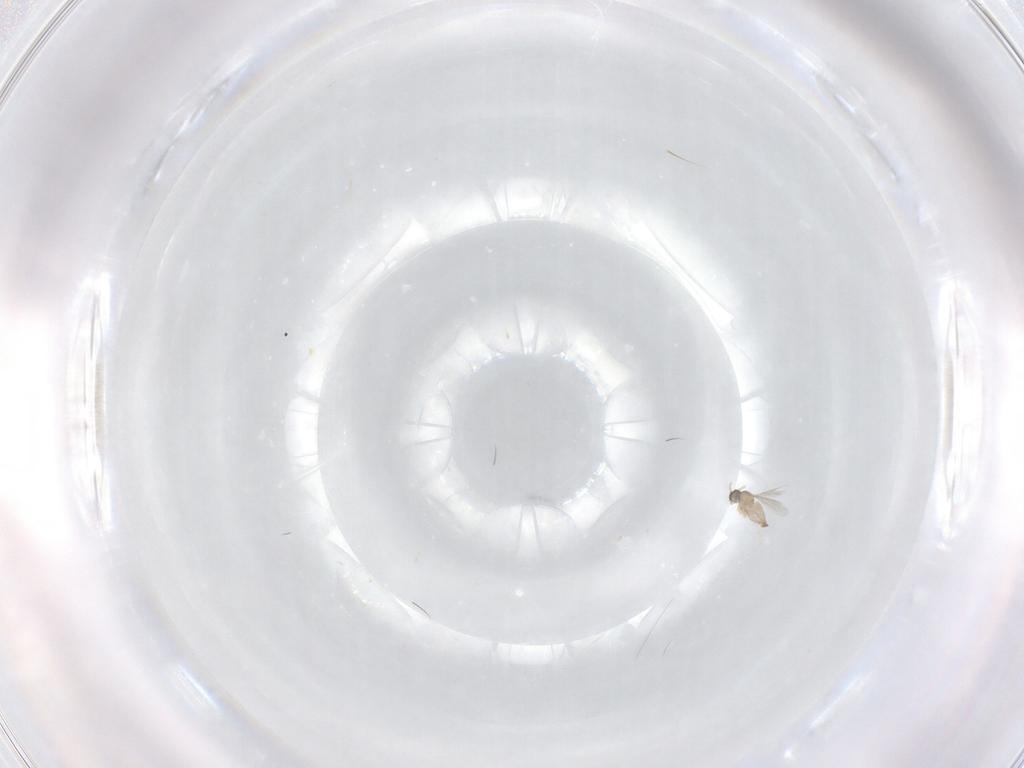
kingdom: Animalia
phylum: Arthropoda
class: Insecta
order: Diptera
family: Cecidomyiidae
